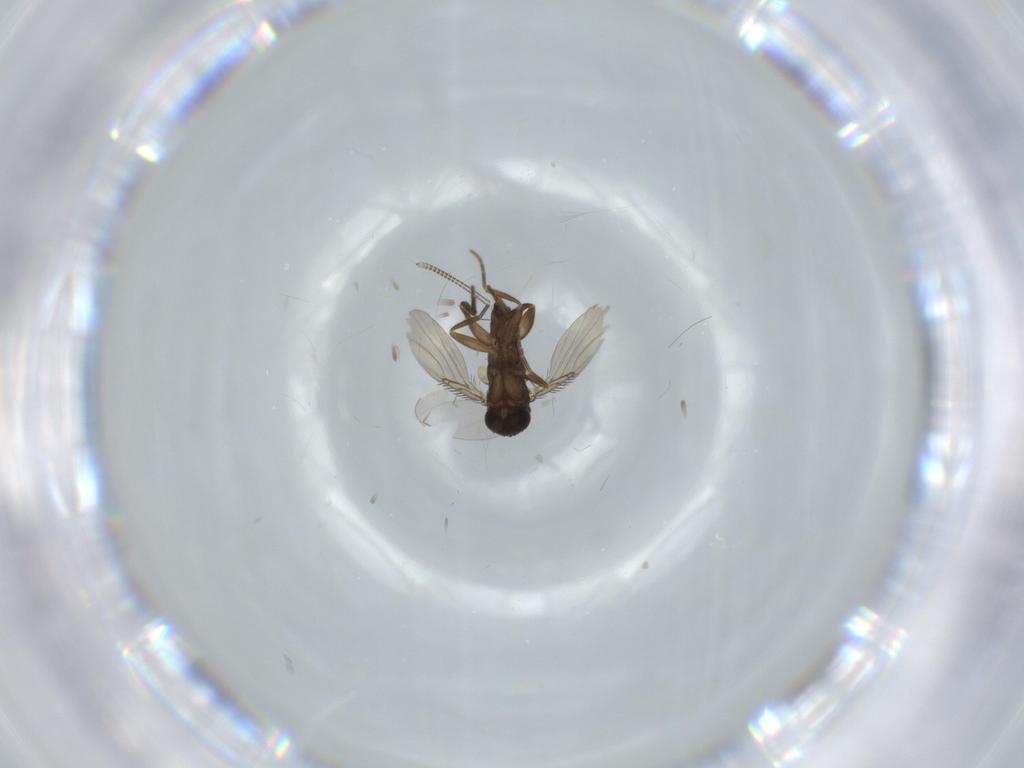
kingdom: Animalia
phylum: Arthropoda
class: Insecta
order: Diptera
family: Phoridae
